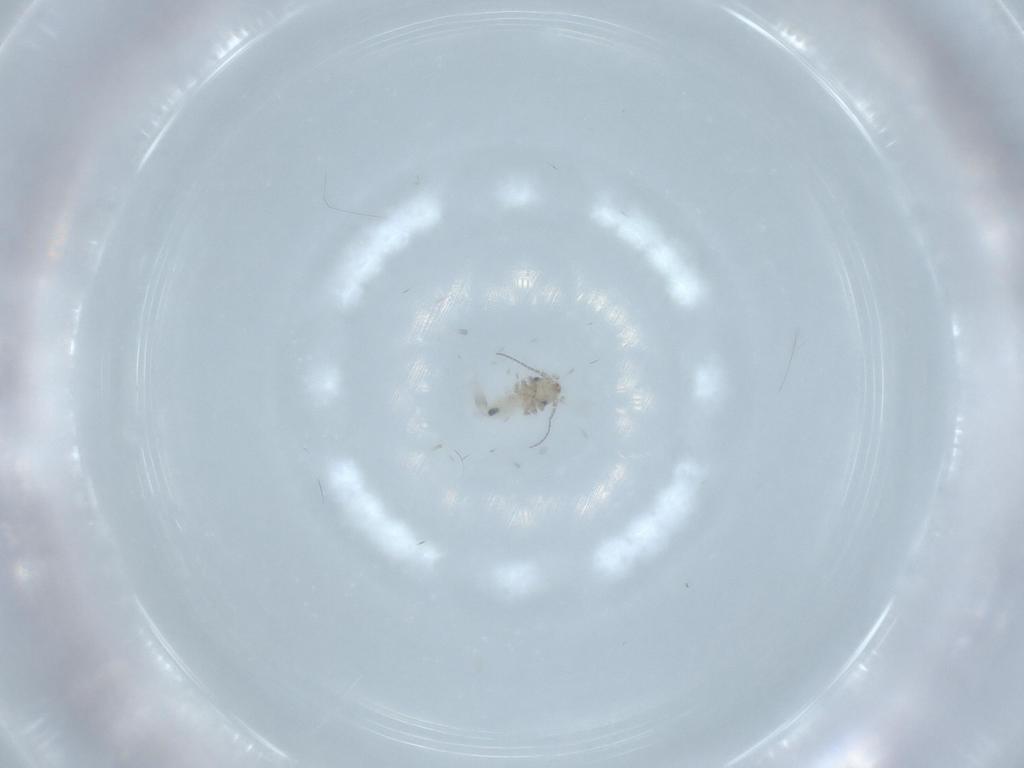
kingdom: Animalia
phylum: Arthropoda
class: Insecta
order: Psocodea
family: Lepidopsocidae
